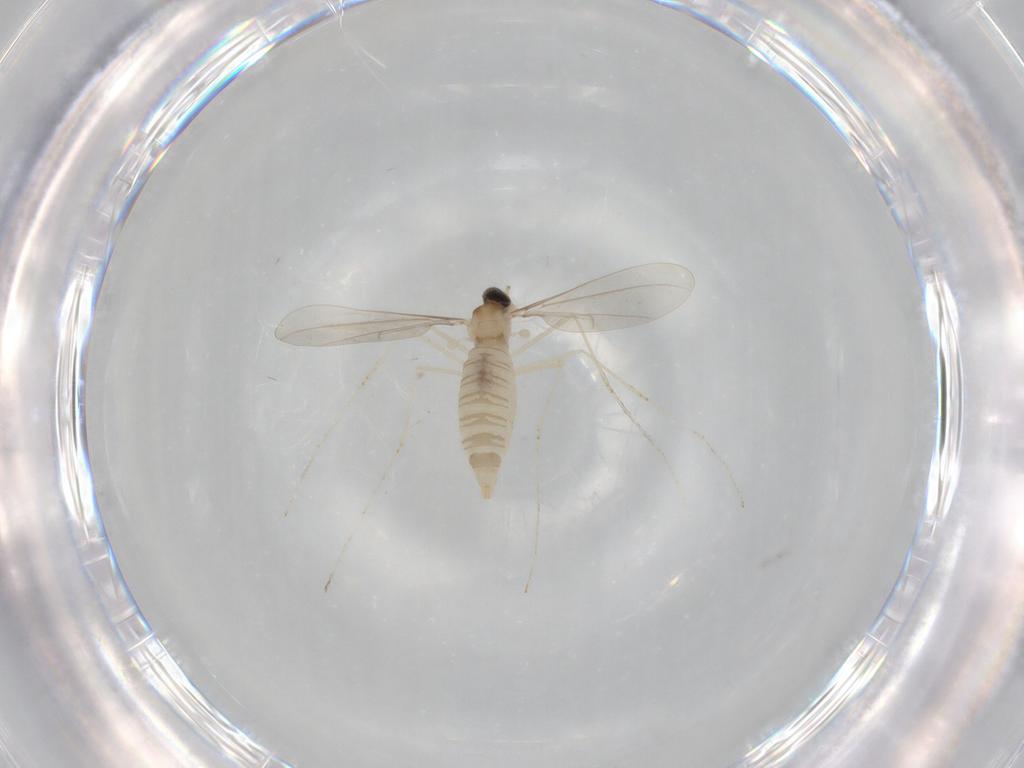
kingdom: Animalia
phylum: Arthropoda
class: Insecta
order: Diptera
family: Cecidomyiidae
